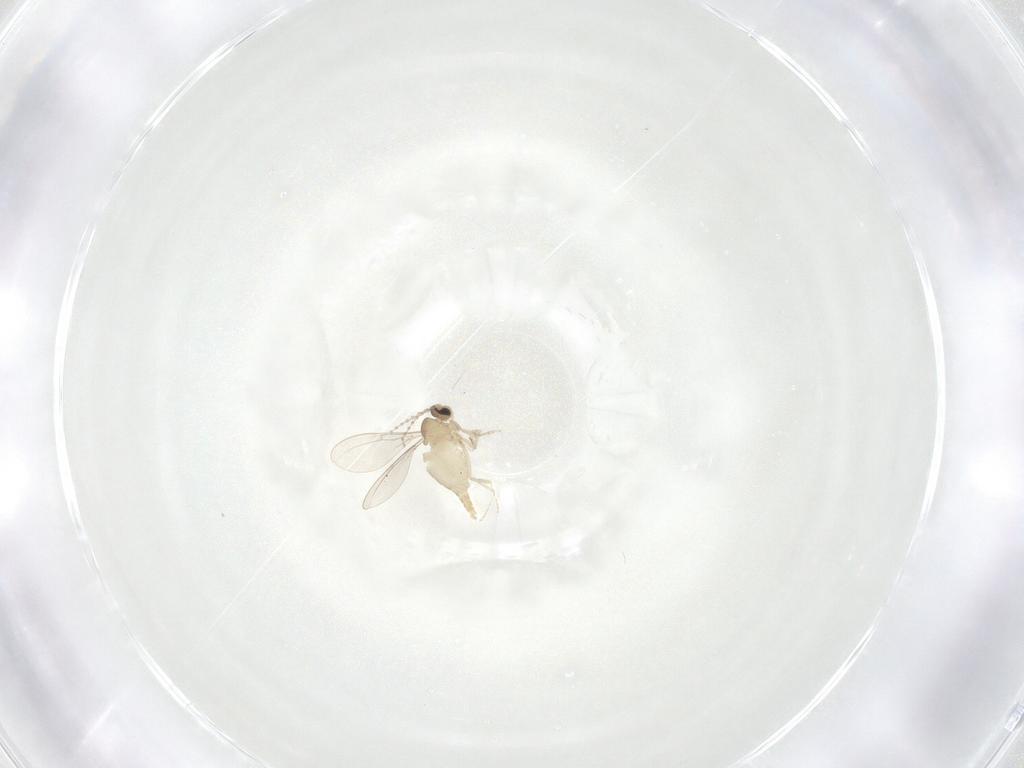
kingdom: Animalia
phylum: Arthropoda
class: Insecta
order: Diptera
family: Cecidomyiidae
